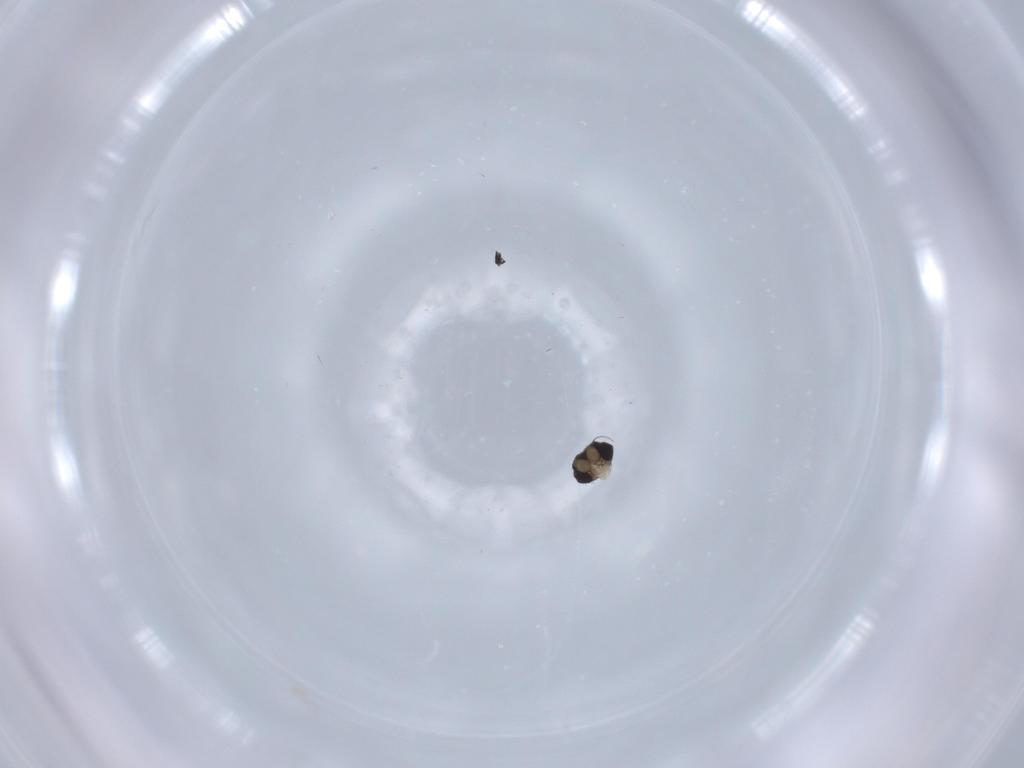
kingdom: Animalia
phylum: Arthropoda
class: Insecta
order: Diptera
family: Phoridae
